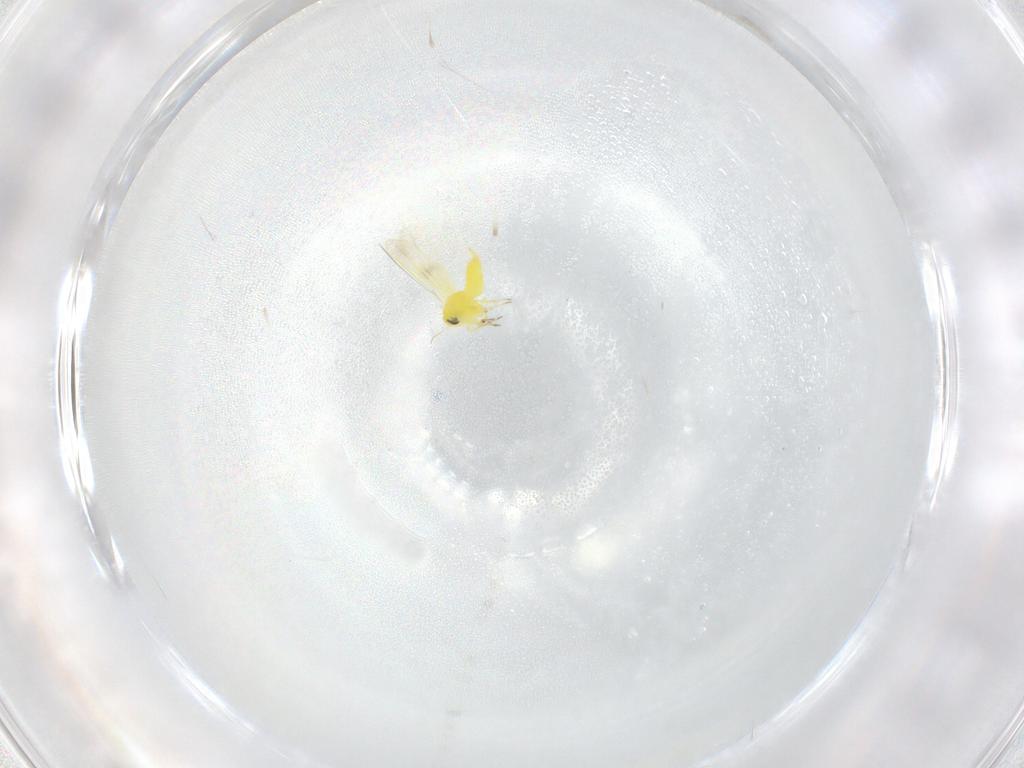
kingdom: Animalia
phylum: Arthropoda
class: Insecta
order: Hemiptera
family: Aleyrodidae
